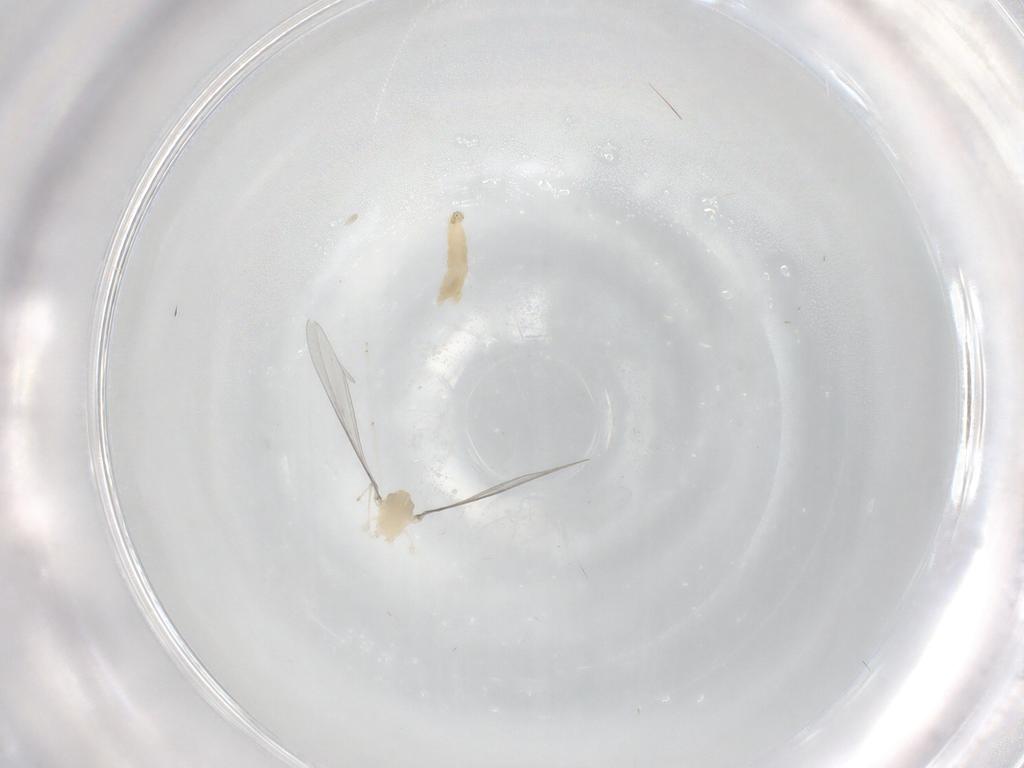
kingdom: Animalia
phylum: Arthropoda
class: Insecta
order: Diptera
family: Cecidomyiidae
